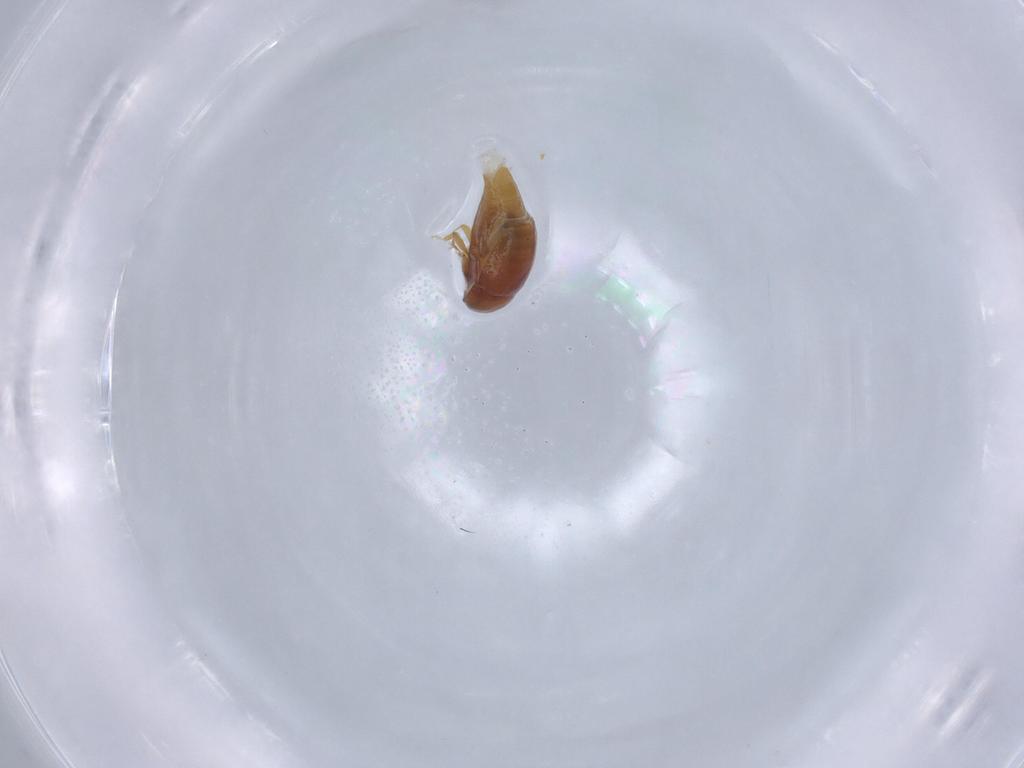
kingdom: Animalia
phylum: Arthropoda
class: Insecta
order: Coleoptera
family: Corylophidae
